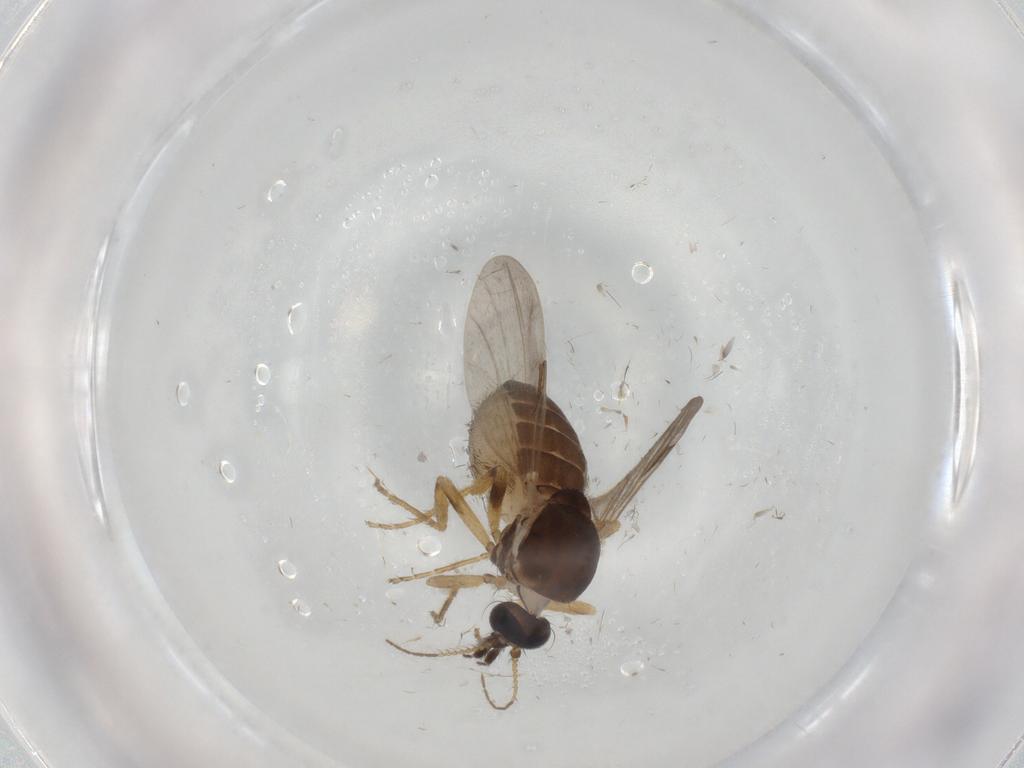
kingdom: Animalia
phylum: Arthropoda
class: Insecta
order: Diptera
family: Ceratopogonidae
